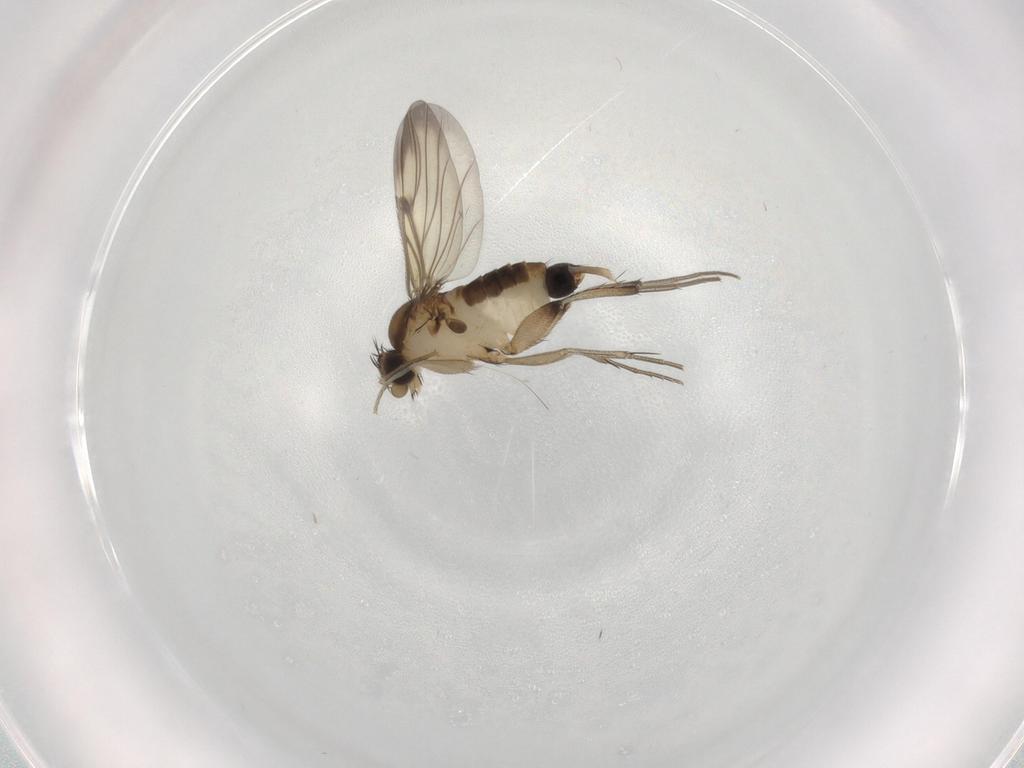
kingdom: Animalia
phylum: Arthropoda
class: Insecta
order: Diptera
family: Phoridae
